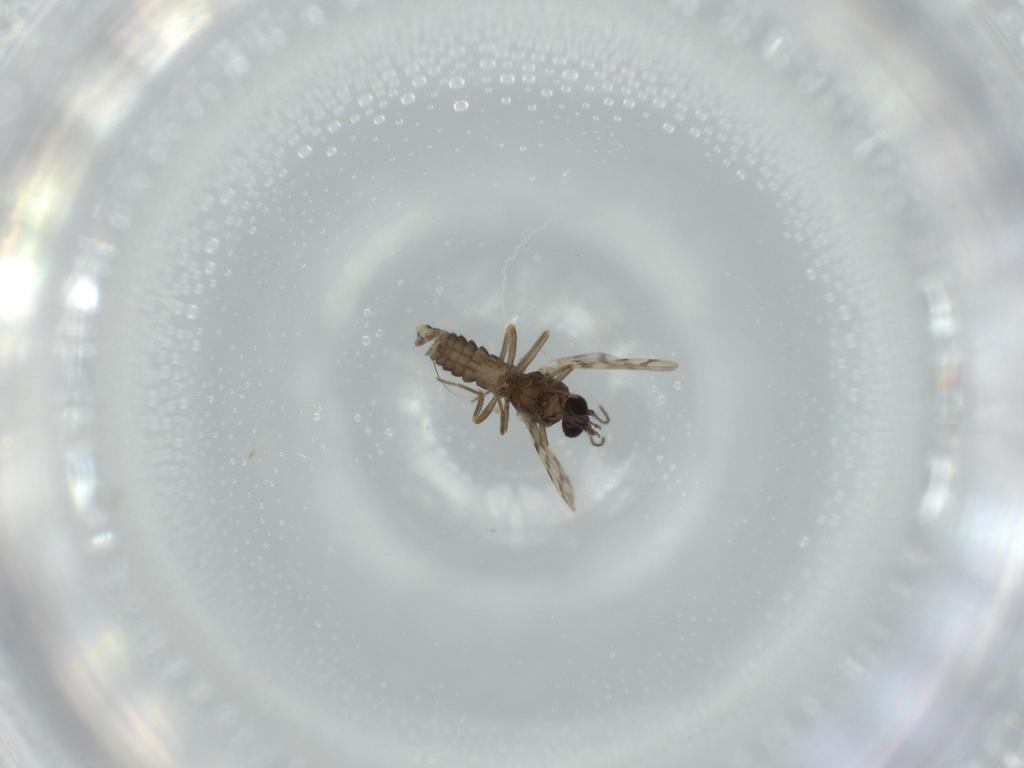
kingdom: Animalia
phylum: Arthropoda
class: Insecta
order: Diptera
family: Ceratopogonidae
